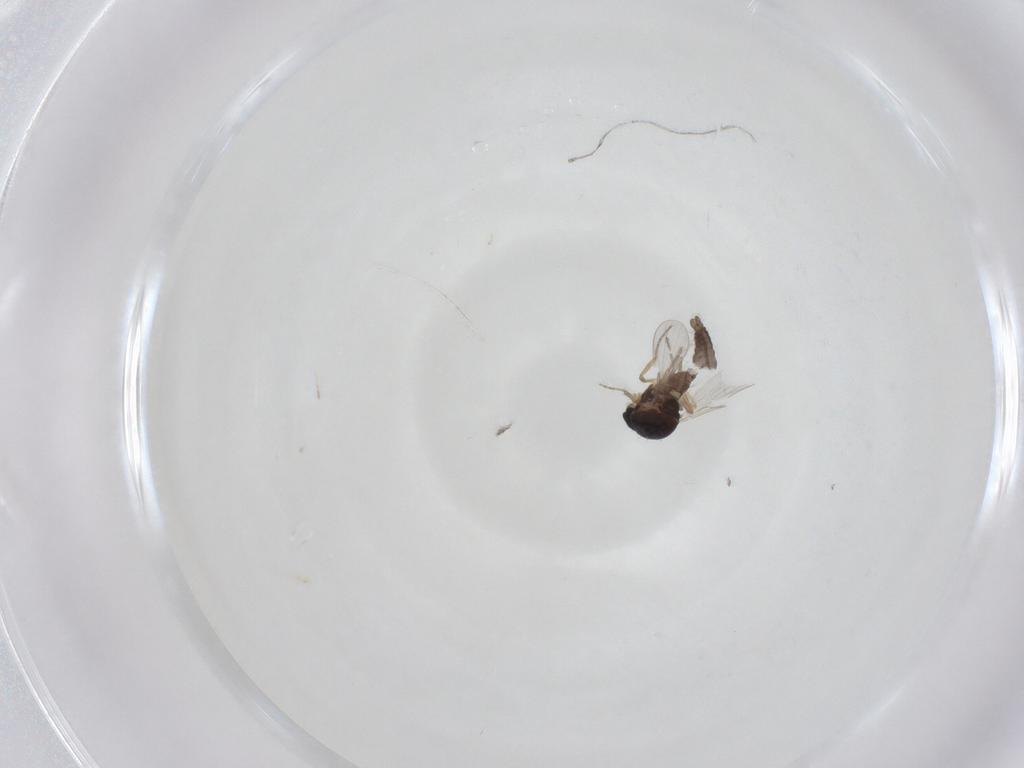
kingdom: Animalia
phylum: Arthropoda
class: Insecta
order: Diptera
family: Ceratopogonidae
